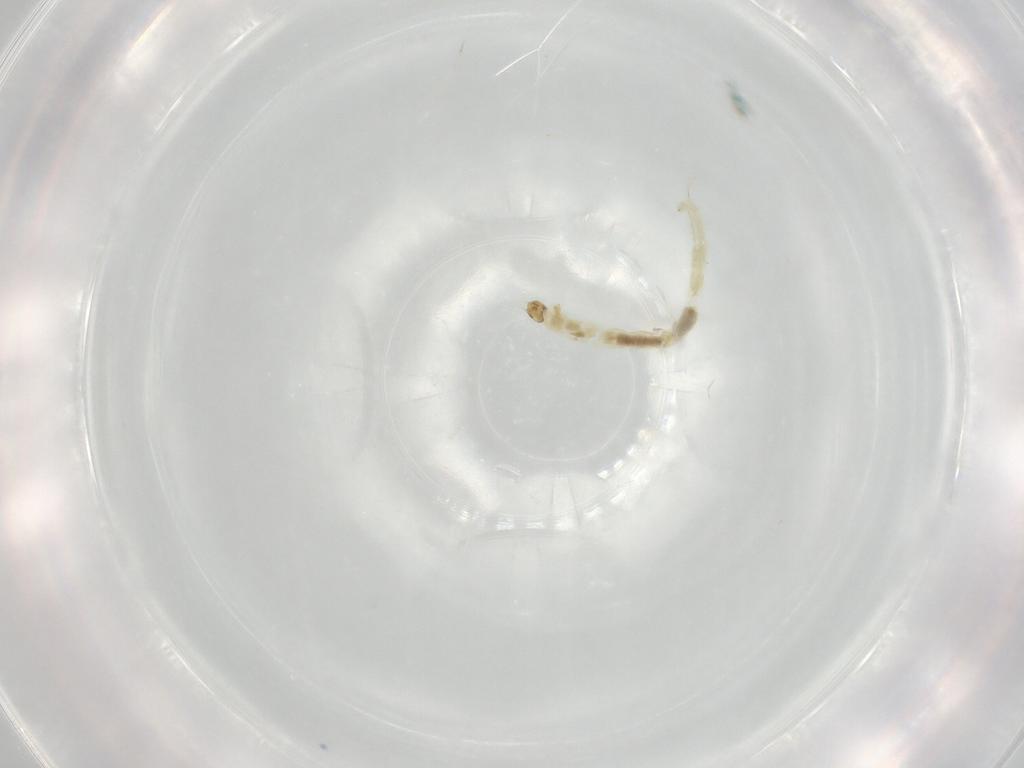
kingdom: Animalia
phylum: Arthropoda
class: Insecta
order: Diptera
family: Chironomidae
